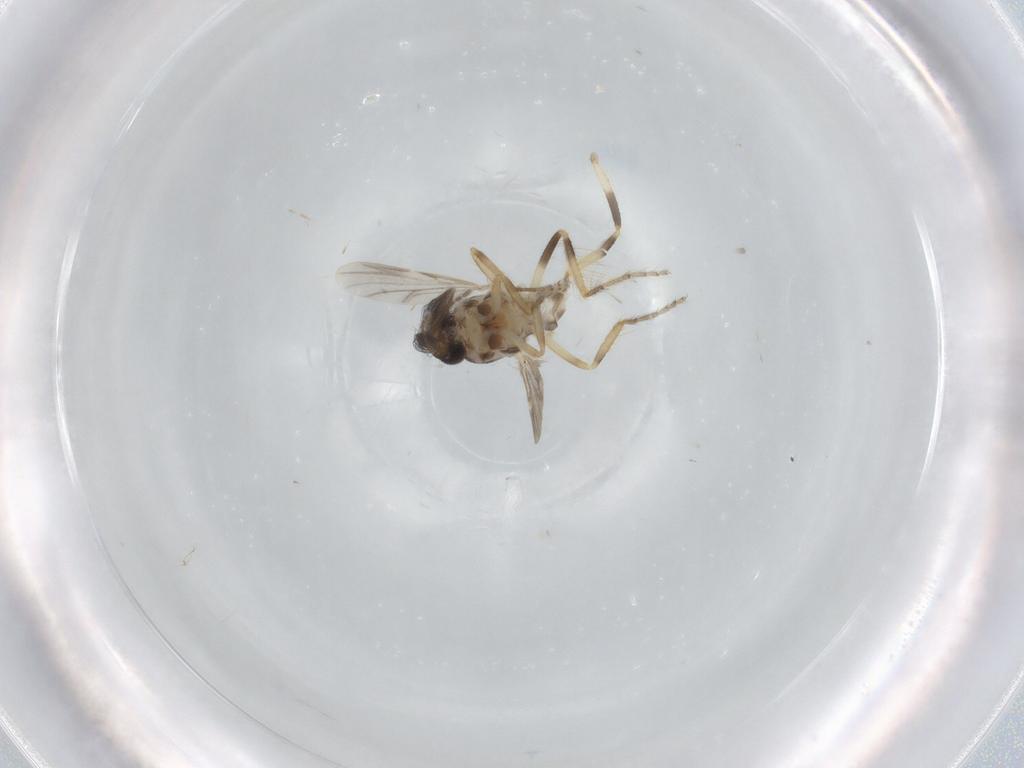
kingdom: Animalia
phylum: Arthropoda
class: Insecta
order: Diptera
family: Ceratopogonidae
